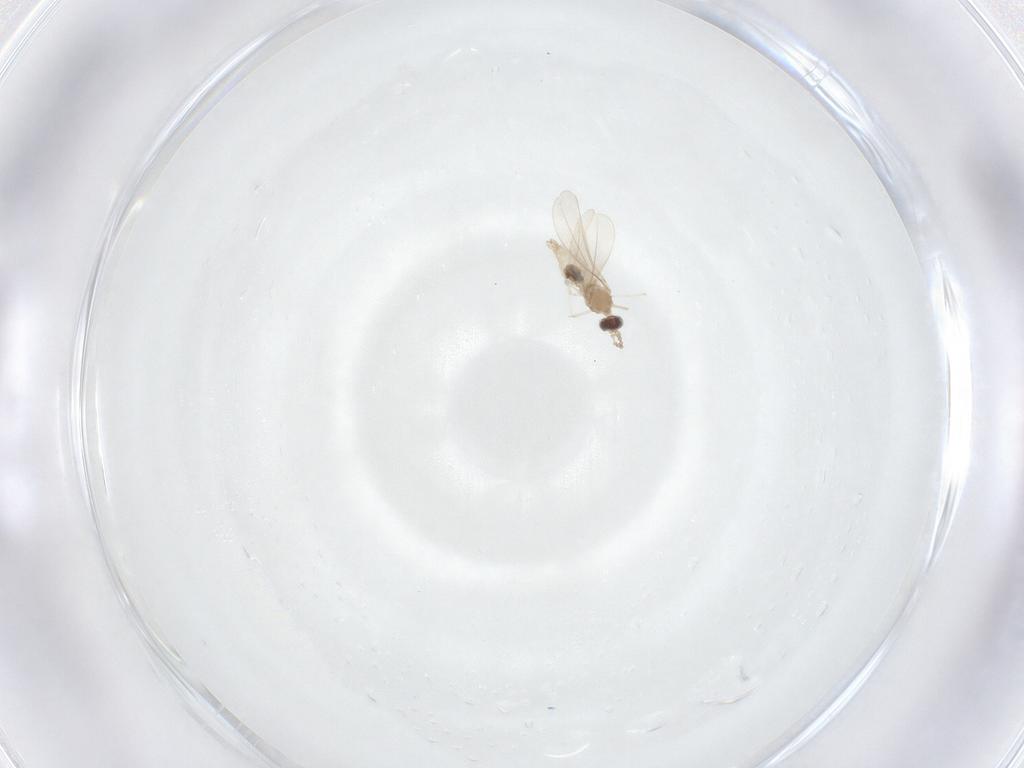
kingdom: Animalia
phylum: Arthropoda
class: Insecta
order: Diptera
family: Cecidomyiidae
